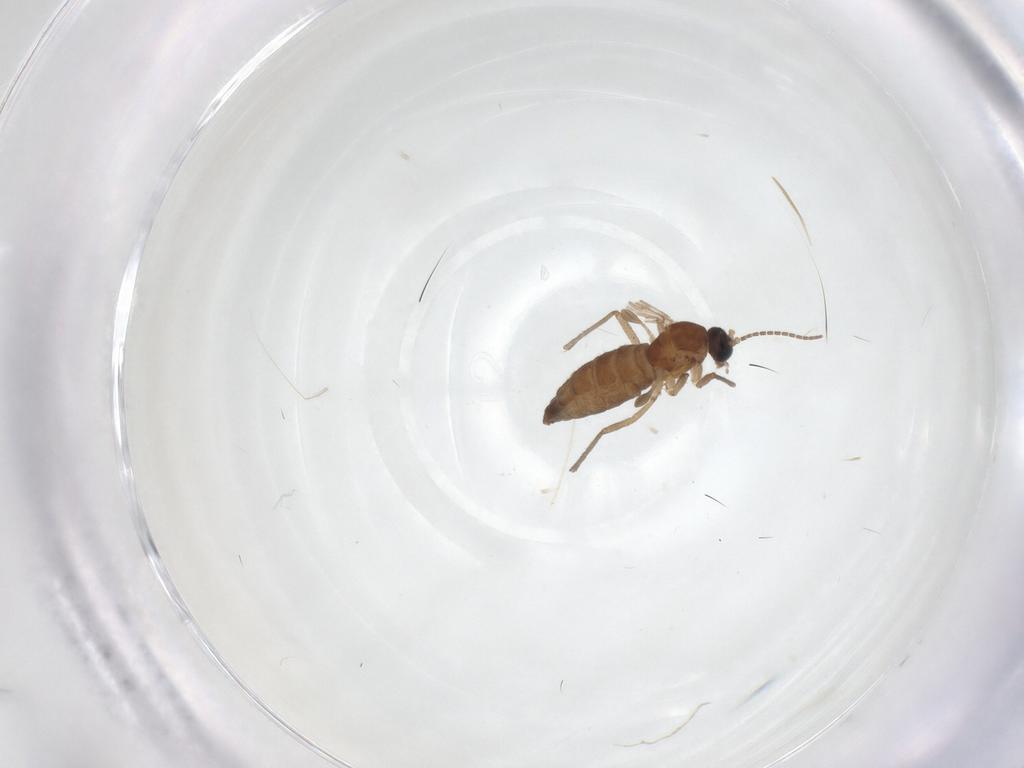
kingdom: Animalia
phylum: Arthropoda
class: Insecta
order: Diptera
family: Sciaridae
